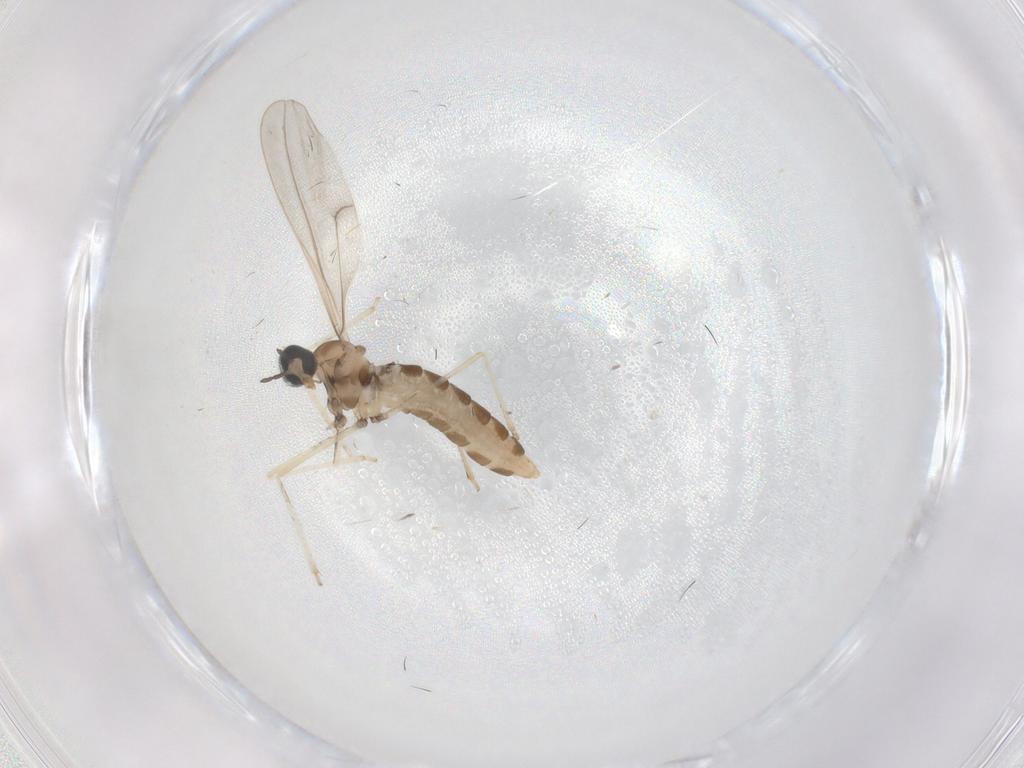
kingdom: Animalia
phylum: Arthropoda
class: Insecta
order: Diptera
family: Cecidomyiidae
